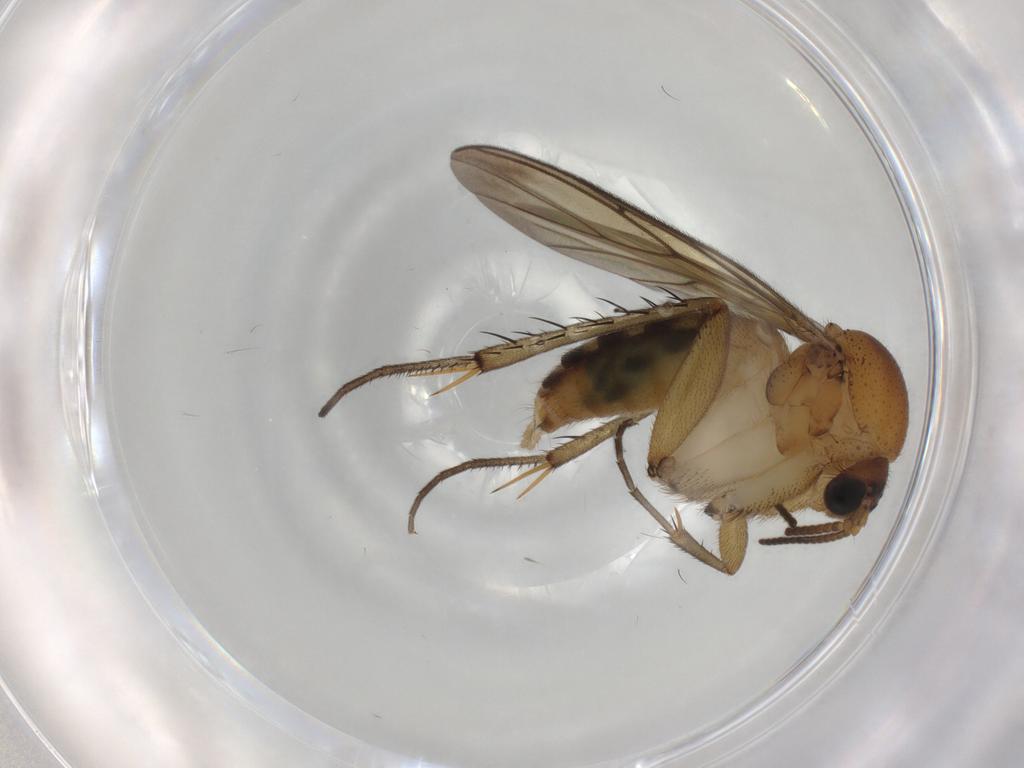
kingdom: Animalia
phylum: Arthropoda
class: Insecta
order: Diptera
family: Mycetophilidae
